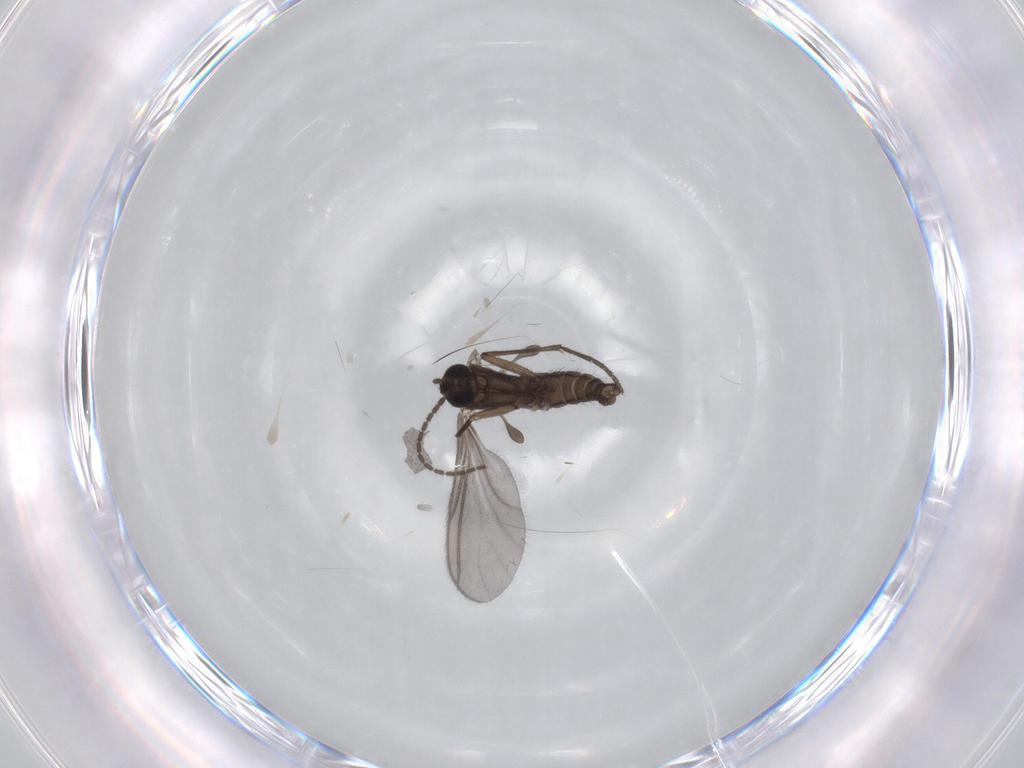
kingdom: Animalia
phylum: Arthropoda
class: Insecta
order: Diptera
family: Sciaridae
